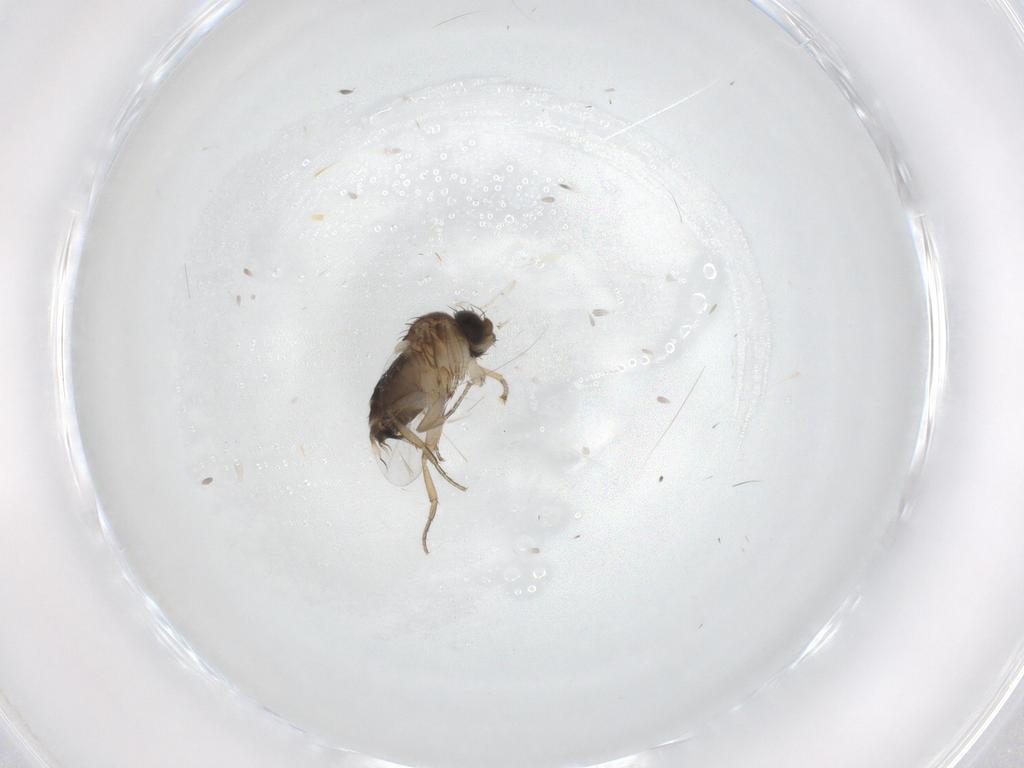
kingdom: Animalia
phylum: Arthropoda
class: Insecta
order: Diptera
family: Cecidomyiidae
